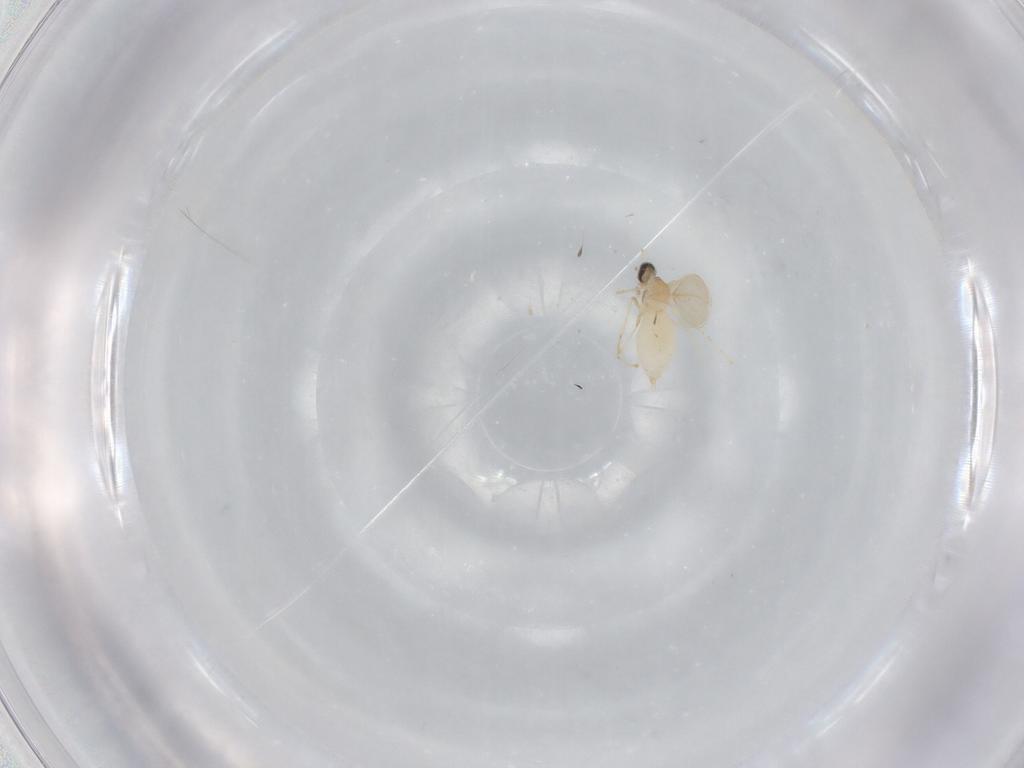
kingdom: Animalia
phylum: Arthropoda
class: Insecta
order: Diptera
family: Cecidomyiidae
